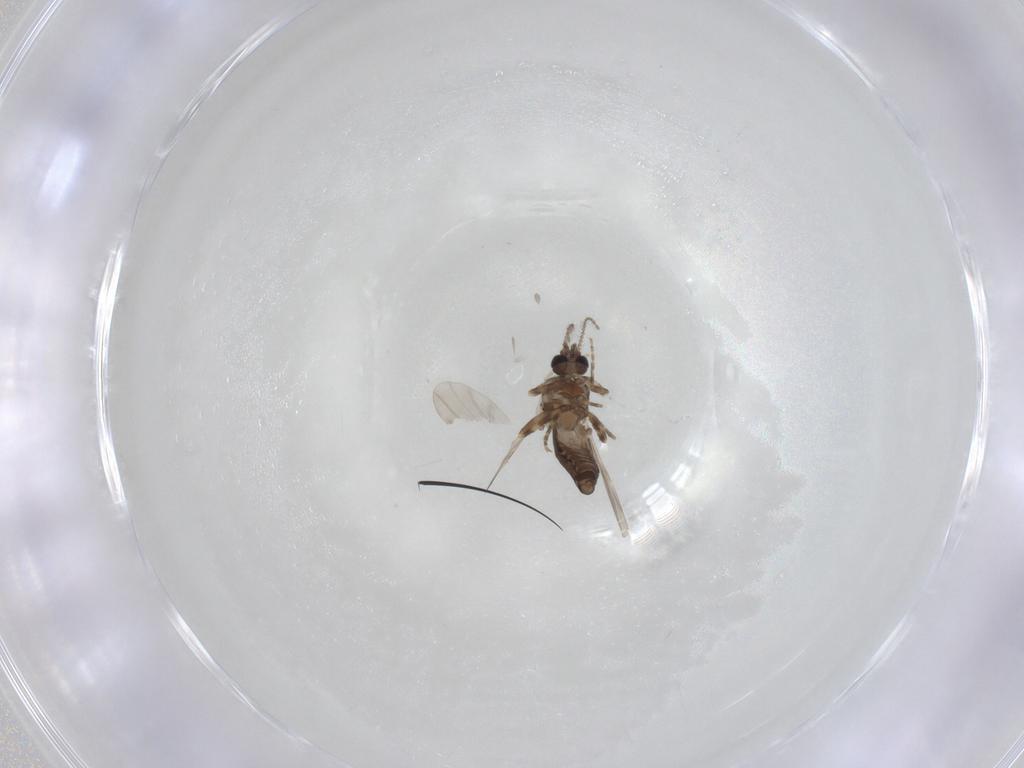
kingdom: Animalia
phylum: Arthropoda
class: Insecta
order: Diptera
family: Ceratopogonidae
